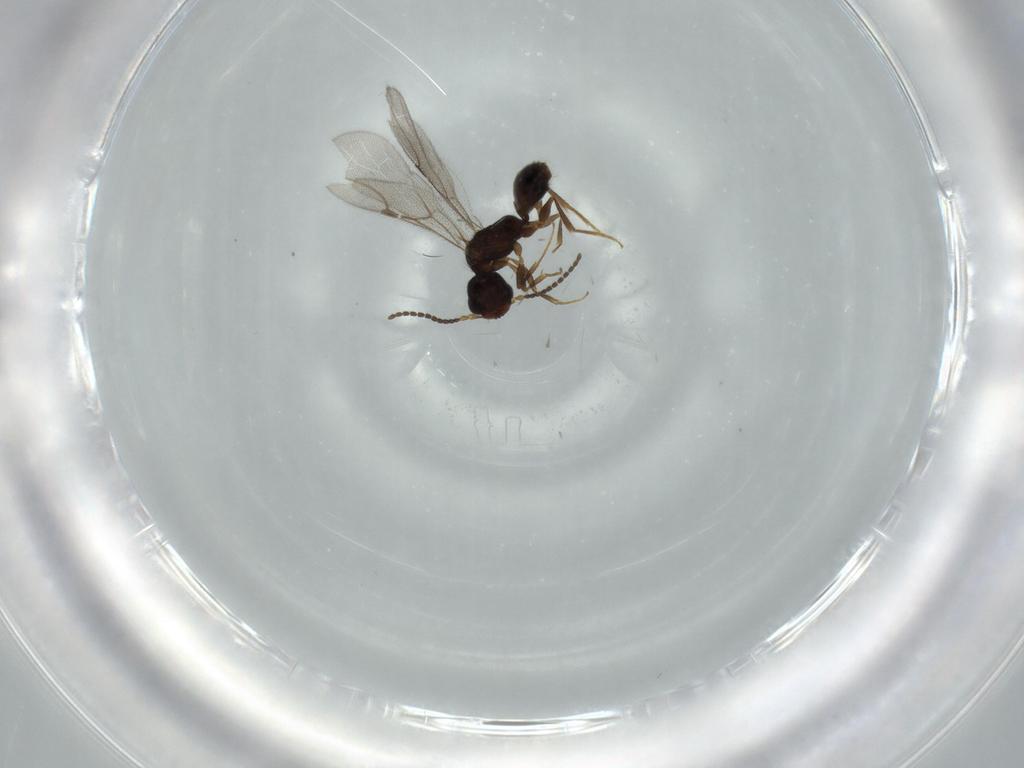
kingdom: Animalia
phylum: Arthropoda
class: Insecta
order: Hymenoptera
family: Bethylidae
